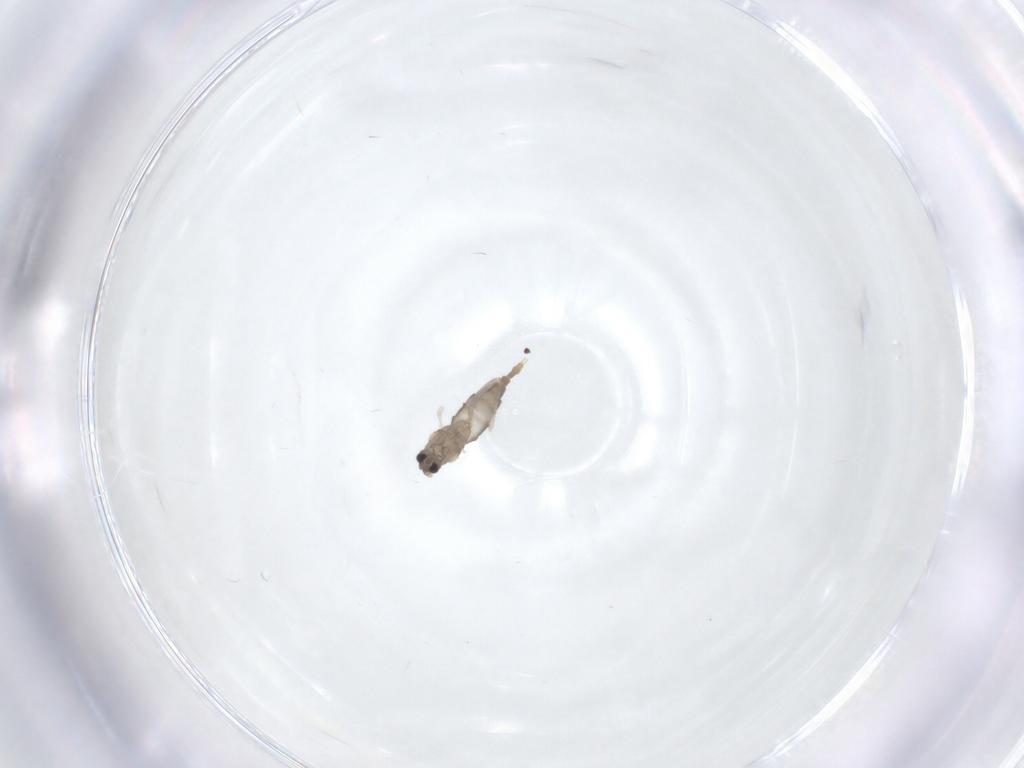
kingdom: Animalia
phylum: Arthropoda
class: Insecta
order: Diptera
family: Cecidomyiidae
